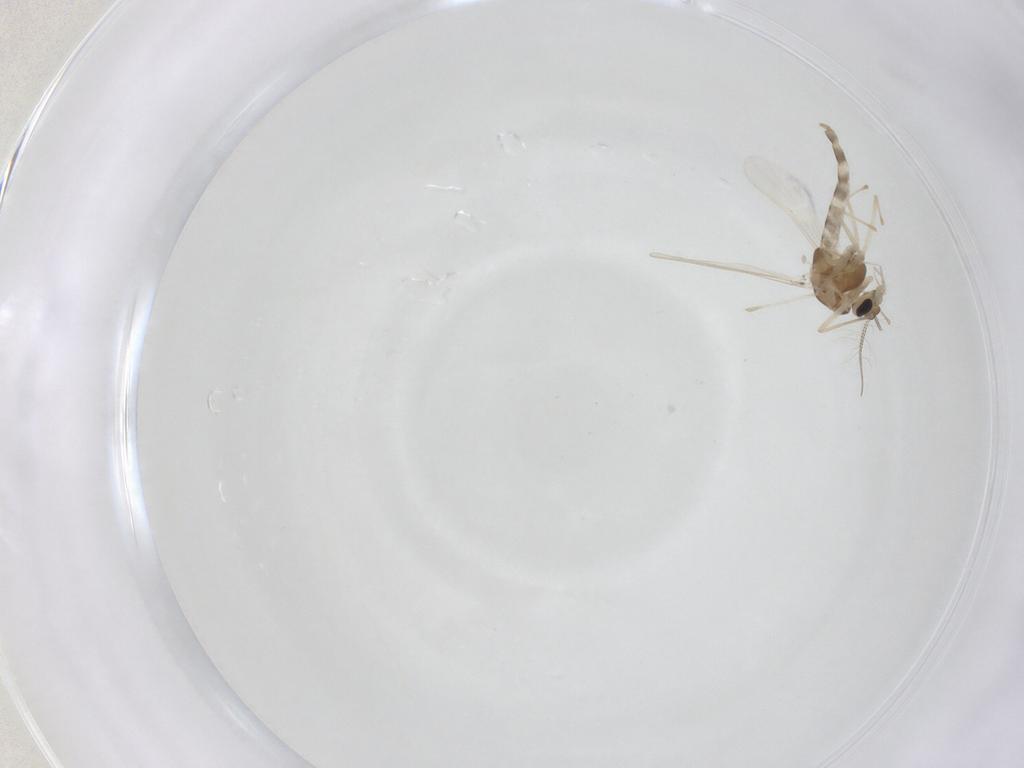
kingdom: Animalia
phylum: Arthropoda
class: Insecta
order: Diptera
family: Chironomidae
